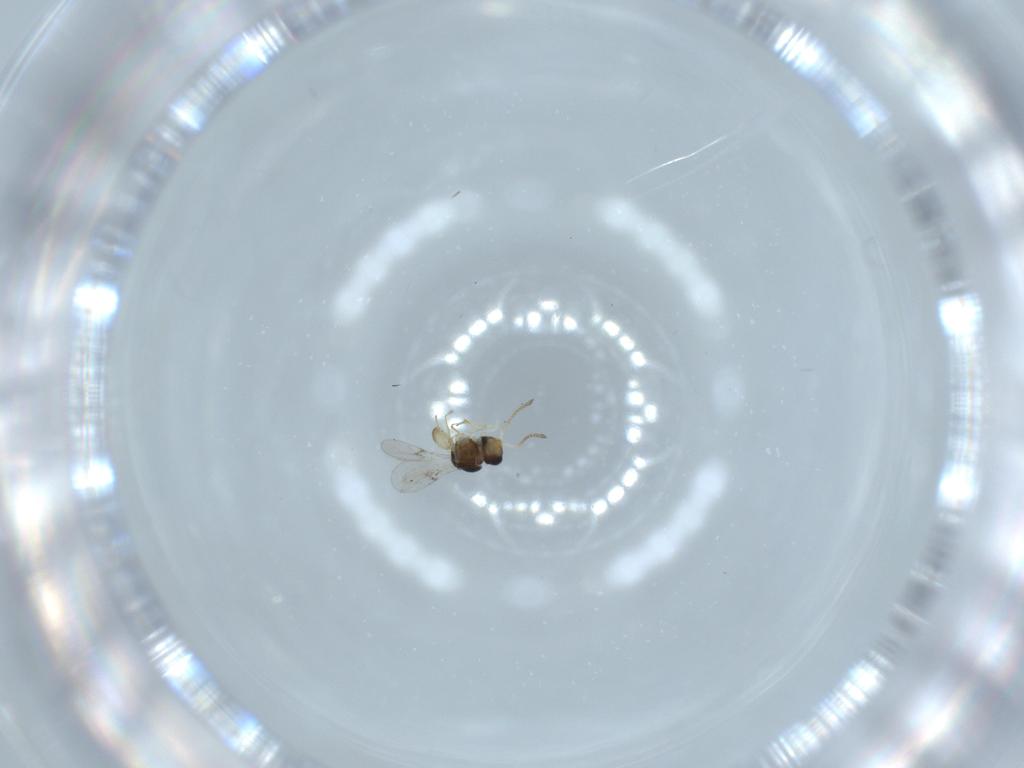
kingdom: Animalia
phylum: Arthropoda
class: Insecta
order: Hymenoptera
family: Scelionidae
